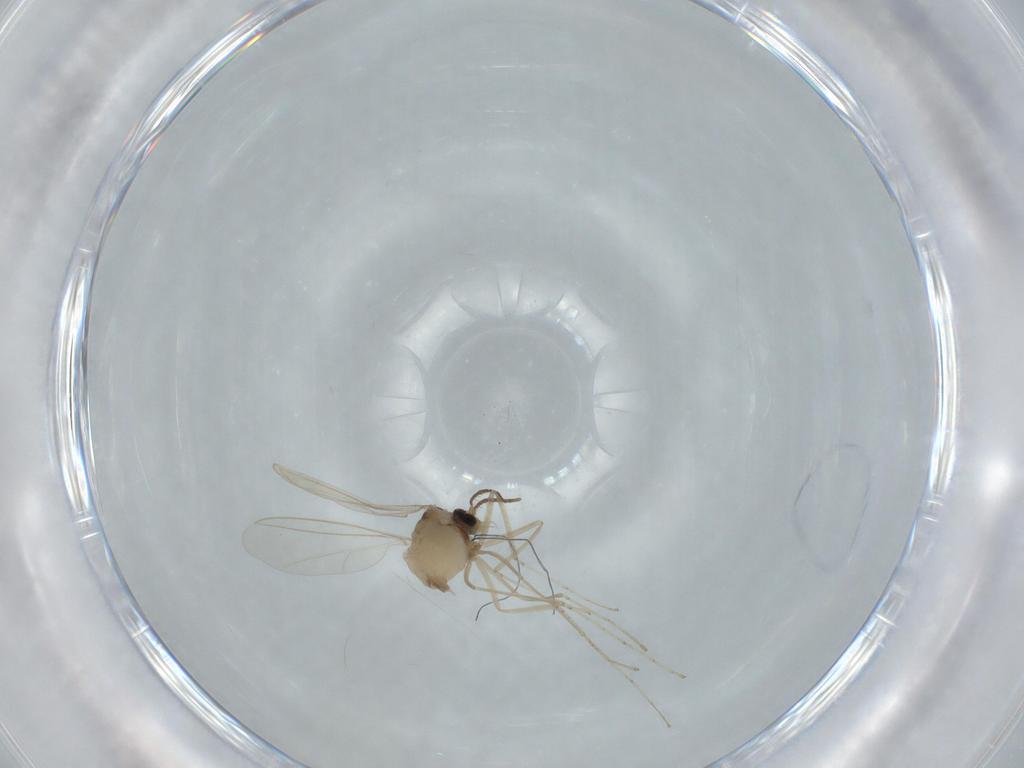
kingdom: Animalia
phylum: Arthropoda
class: Insecta
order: Diptera
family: Cecidomyiidae
